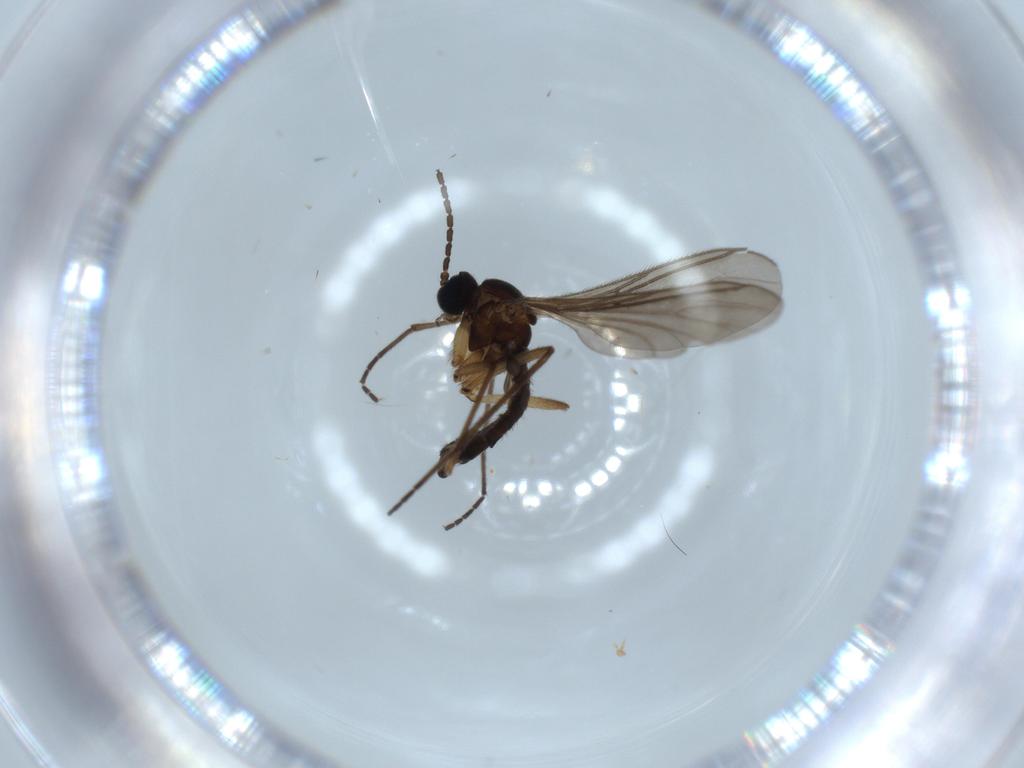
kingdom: Animalia
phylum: Arthropoda
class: Insecta
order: Diptera
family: Sciaridae
